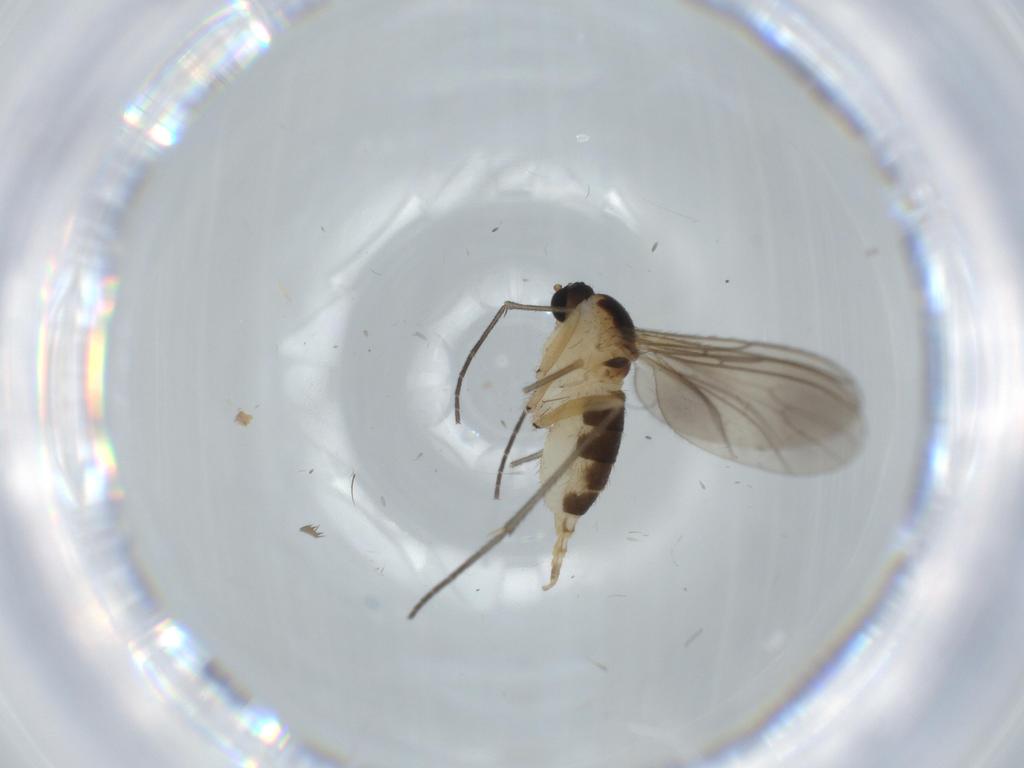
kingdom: Animalia
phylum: Arthropoda
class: Insecta
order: Diptera
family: Sciaridae
